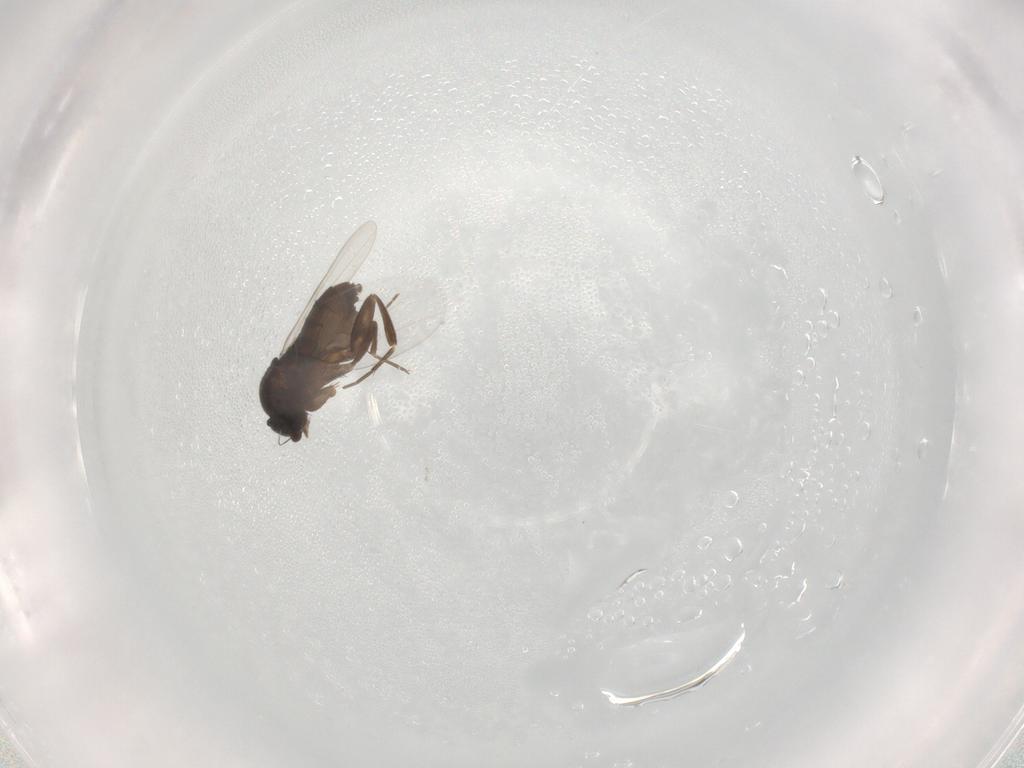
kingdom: Animalia
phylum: Arthropoda
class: Insecta
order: Diptera
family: Phoridae
